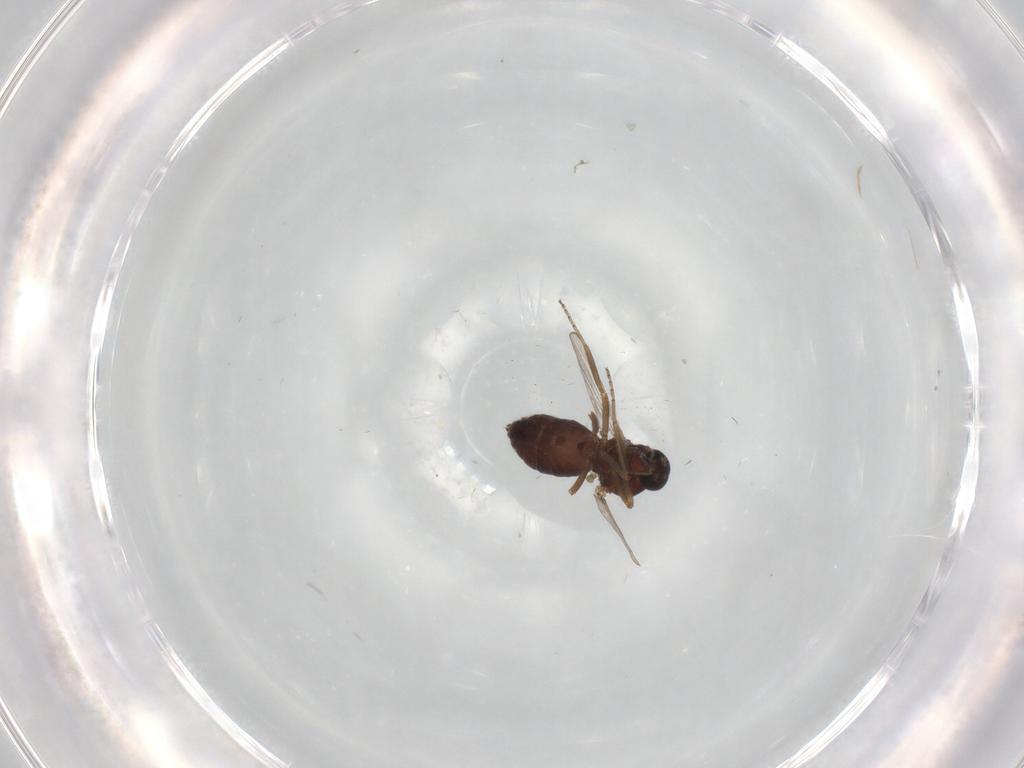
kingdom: Animalia
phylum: Arthropoda
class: Insecta
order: Diptera
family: Ceratopogonidae
